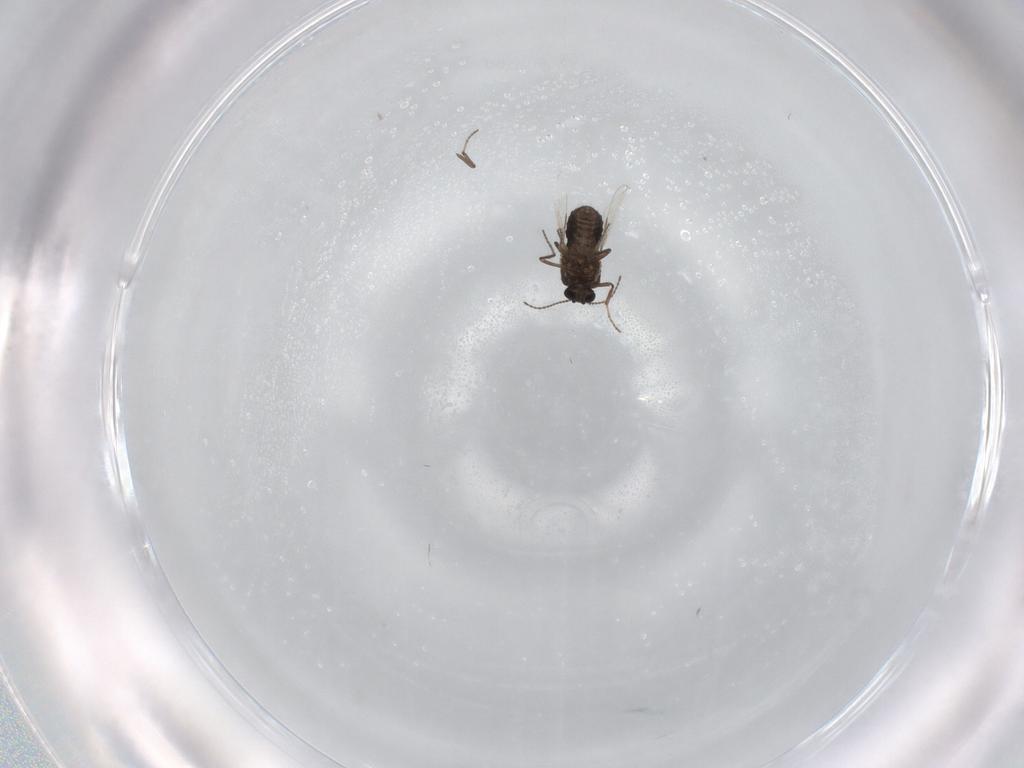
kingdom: Animalia
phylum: Arthropoda
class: Insecta
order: Diptera
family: Ceratopogonidae
